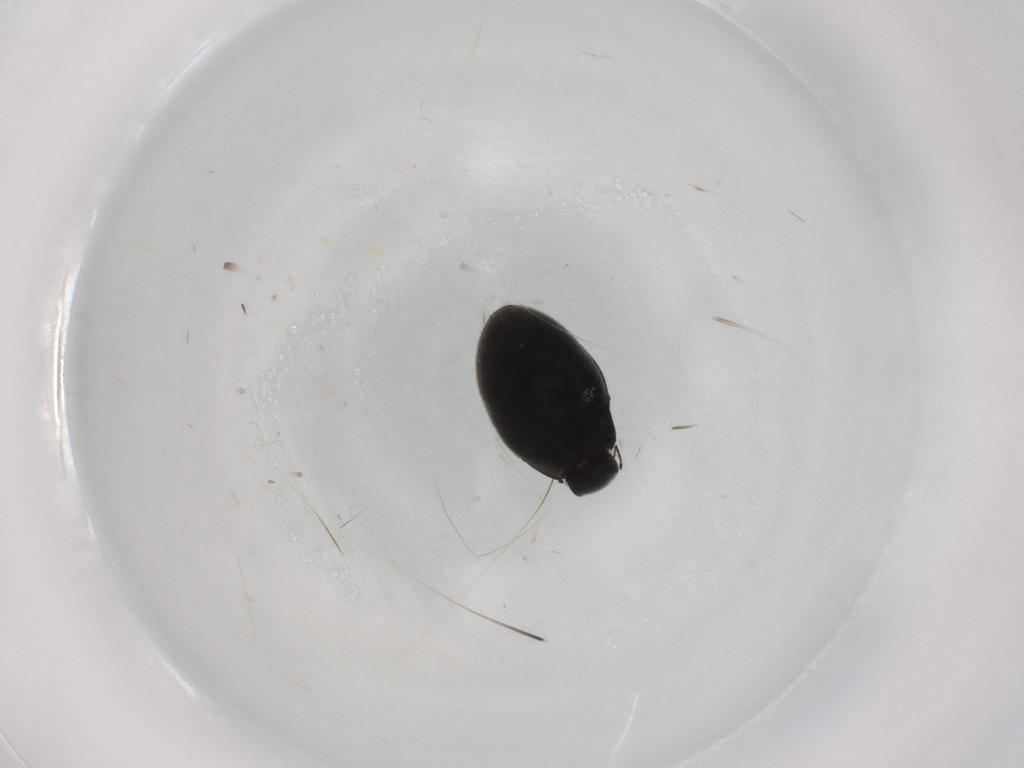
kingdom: Animalia
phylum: Arthropoda
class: Insecta
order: Coleoptera
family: Limnichidae
